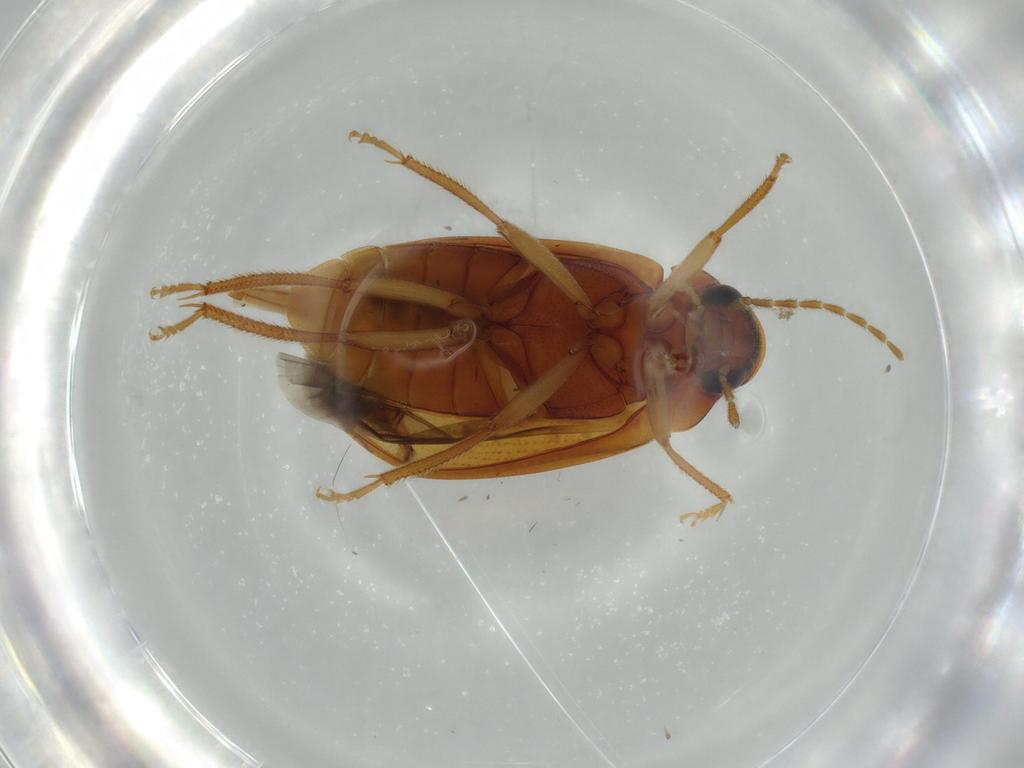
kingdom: Animalia
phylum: Arthropoda
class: Insecta
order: Coleoptera
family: Ptilodactylidae
